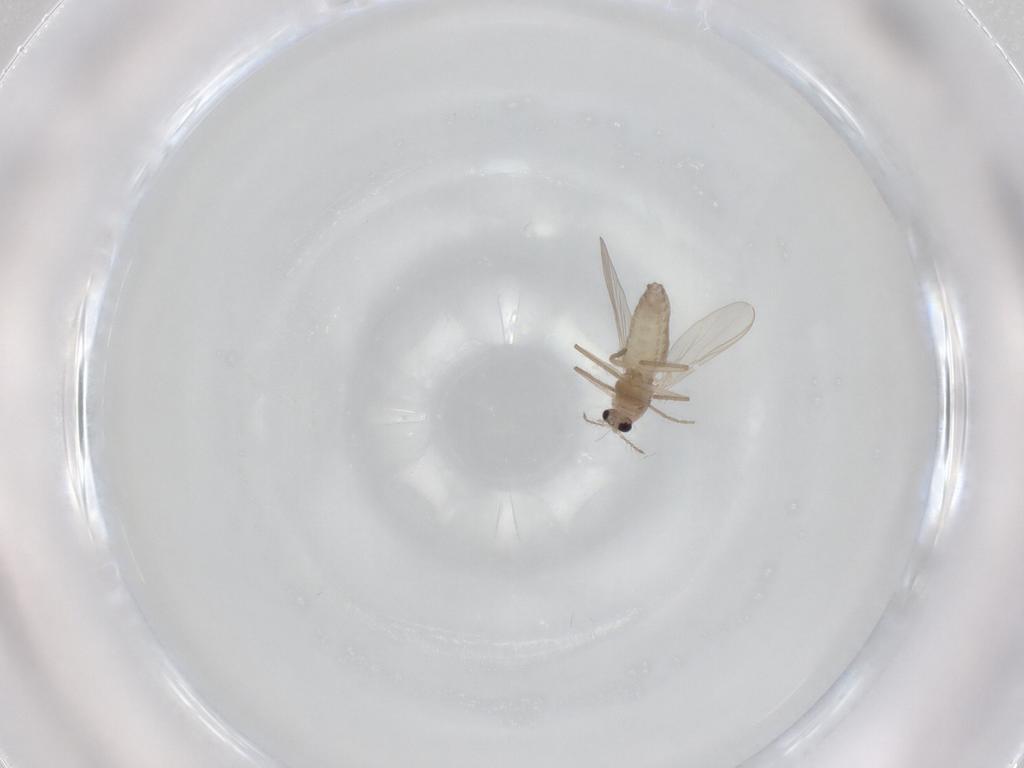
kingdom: Animalia
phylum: Arthropoda
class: Insecta
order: Diptera
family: Chironomidae
